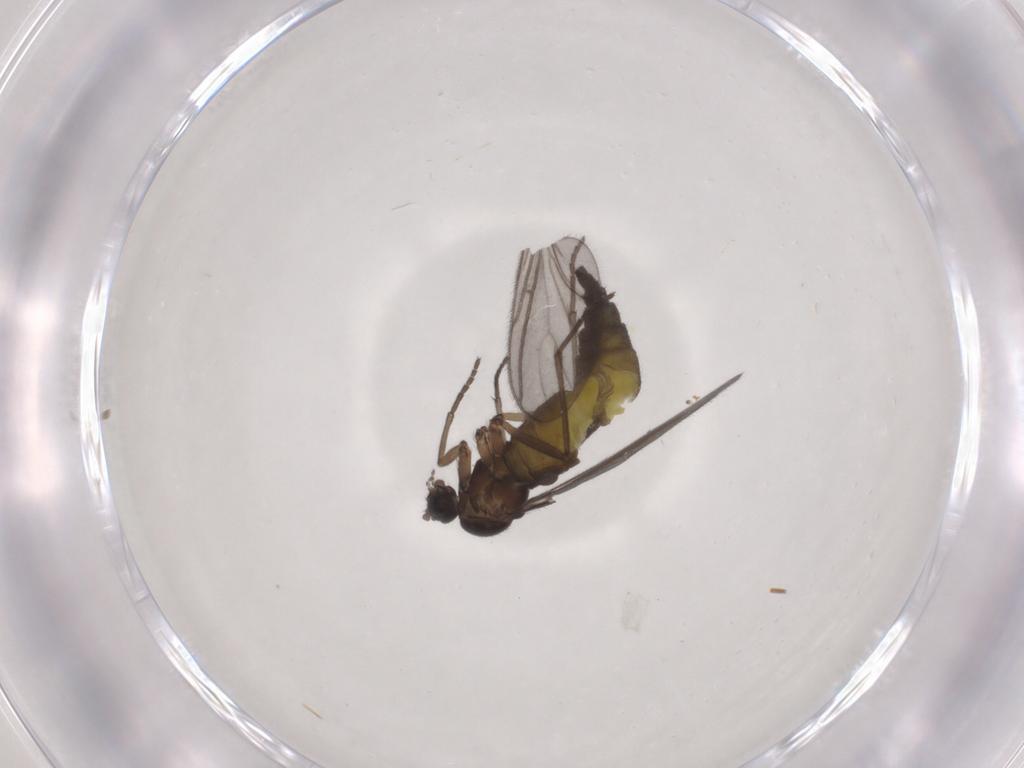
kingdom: Animalia
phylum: Arthropoda
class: Insecta
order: Diptera
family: Sciaridae
